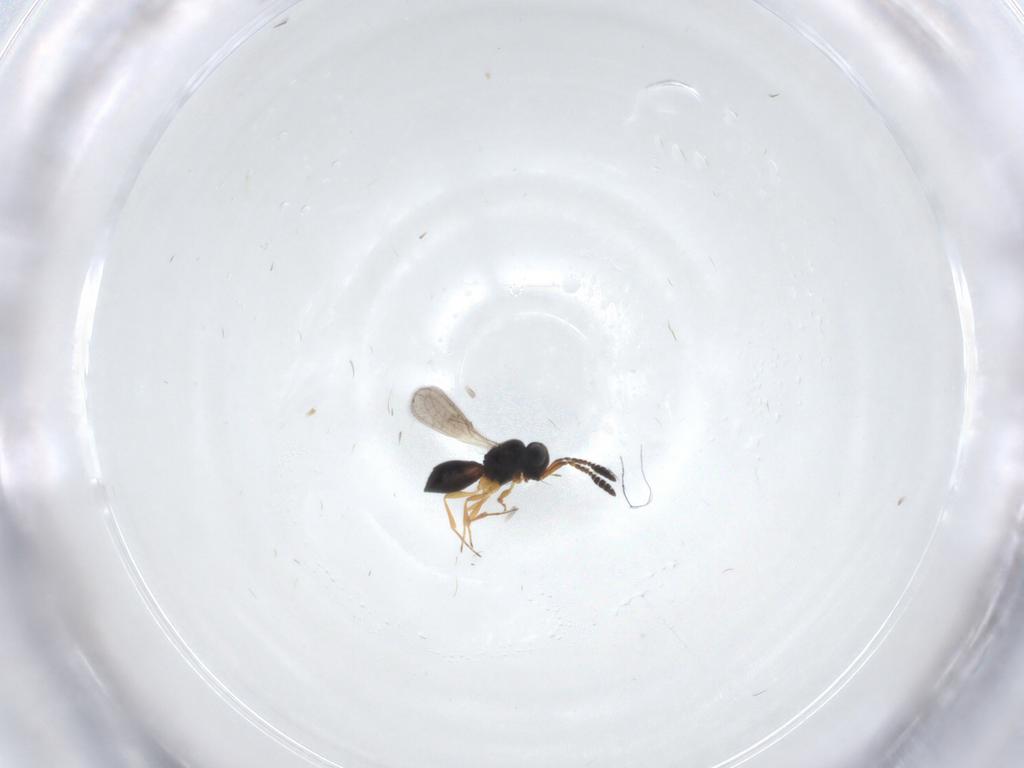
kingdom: Animalia
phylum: Arthropoda
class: Insecta
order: Hymenoptera
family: Scelionidae
